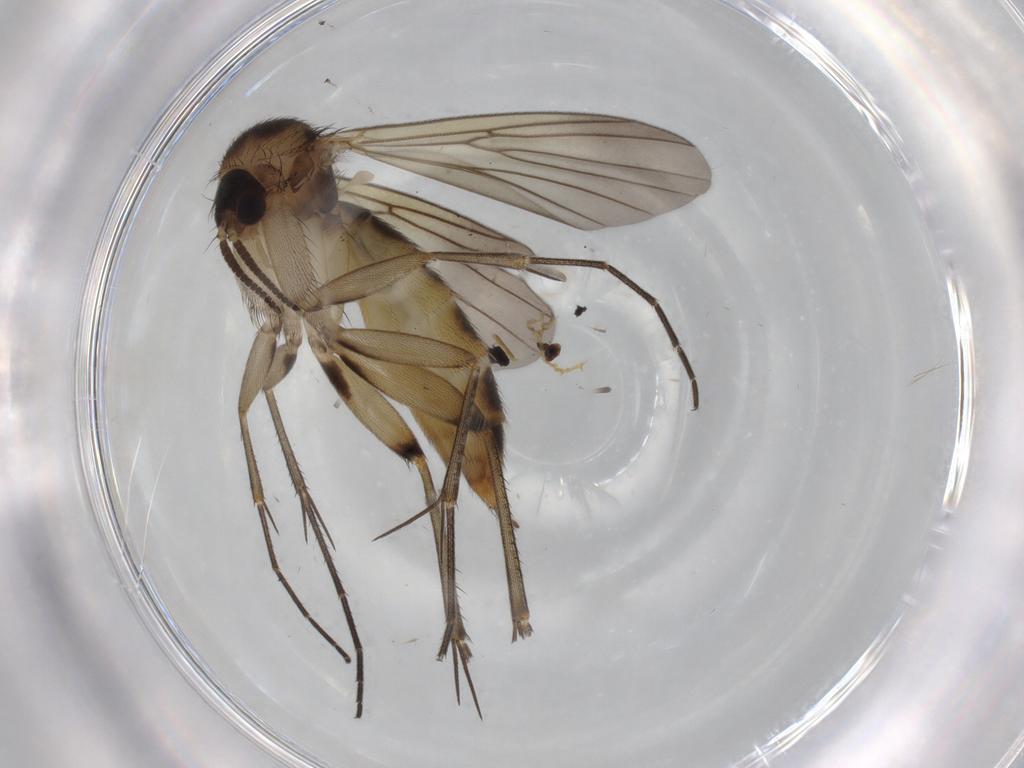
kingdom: Animalia
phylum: Arthropoda
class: Insecta
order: Diptera
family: Mycetophilidae
